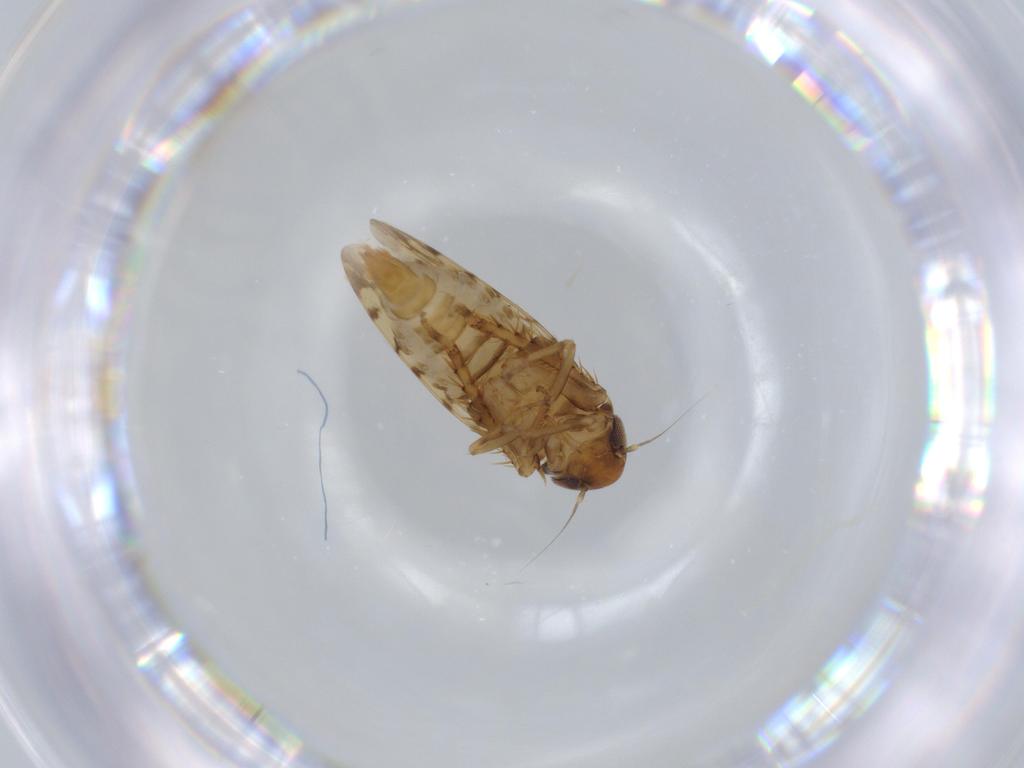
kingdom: Animalia
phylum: Arthropoda
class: Insecta
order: Hemiptera
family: Cicadellidae
